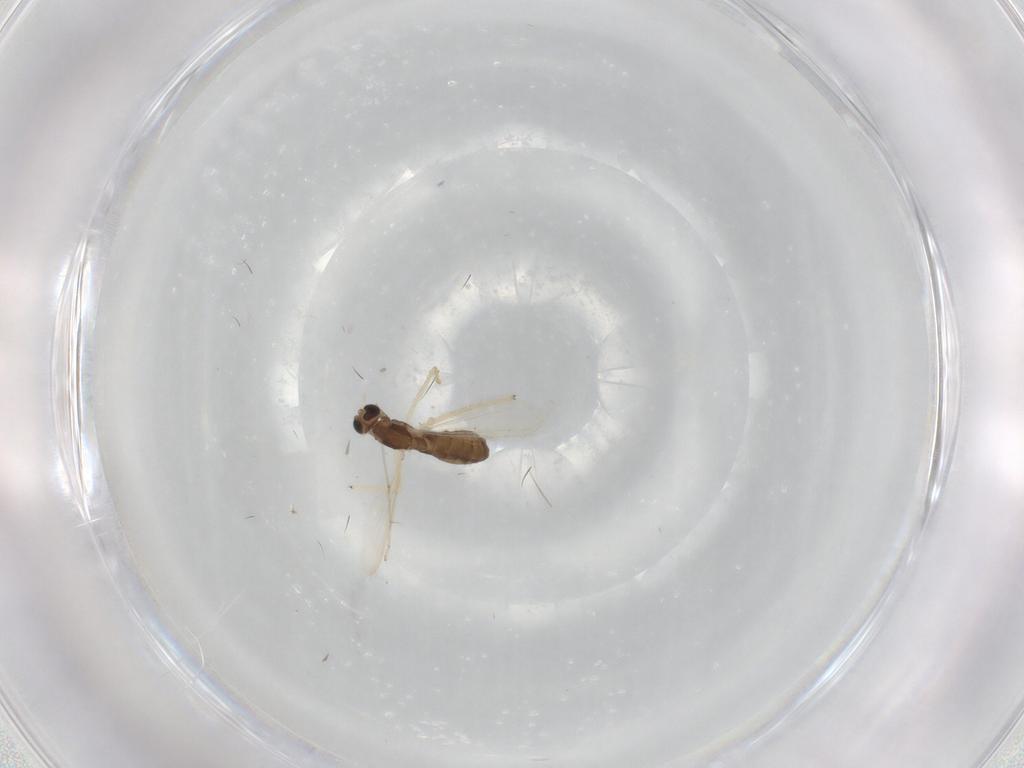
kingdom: Animalia
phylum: Arthropoda
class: Insecta
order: Diptera
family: Chironomidae
